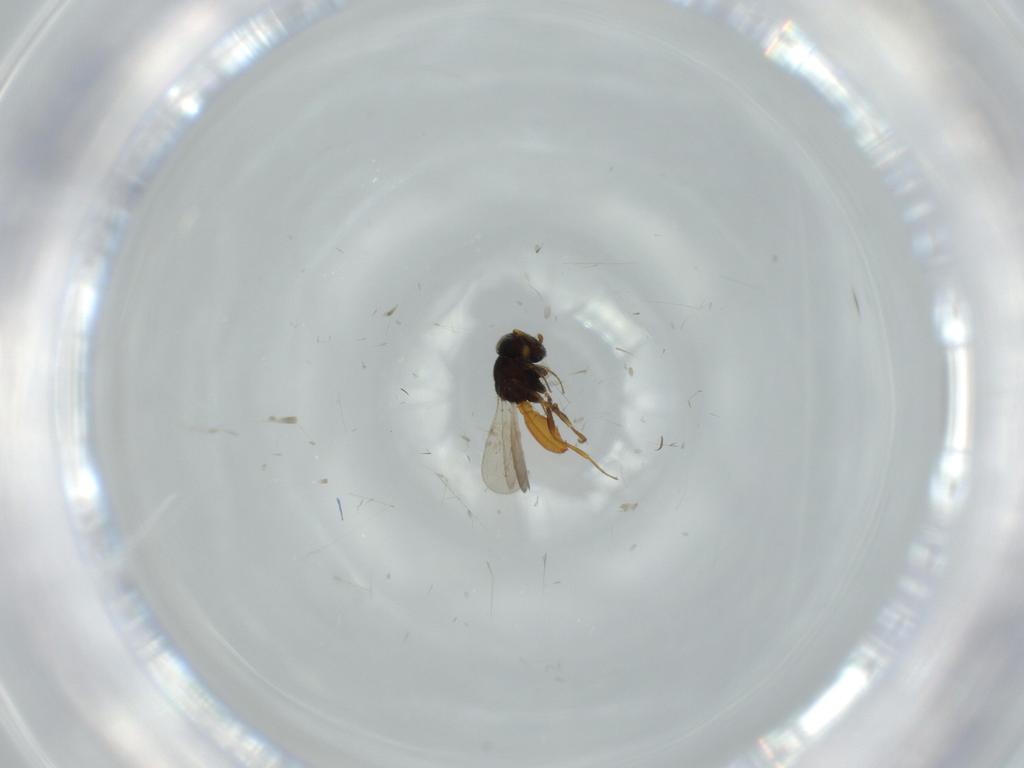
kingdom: Animalia
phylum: Arthropoda
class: Insecta
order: Hymenoptera
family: Scelionidae
